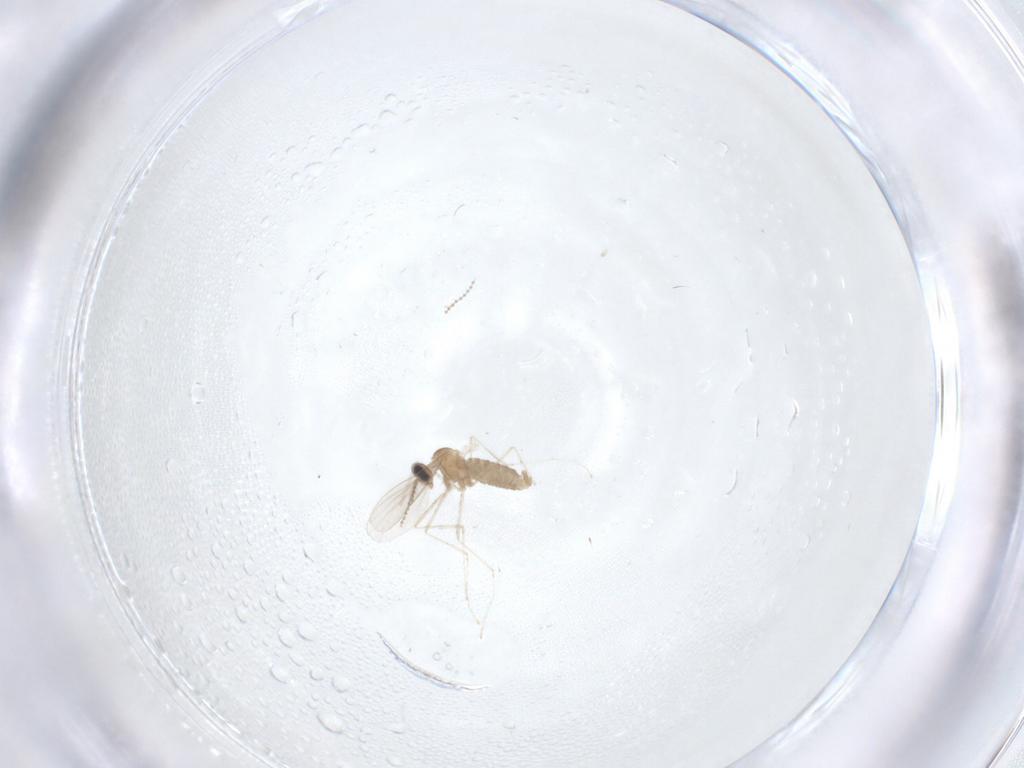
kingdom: Animalia
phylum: Arthropoda
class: Insecta
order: Diptera
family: Cecidomyiidae
